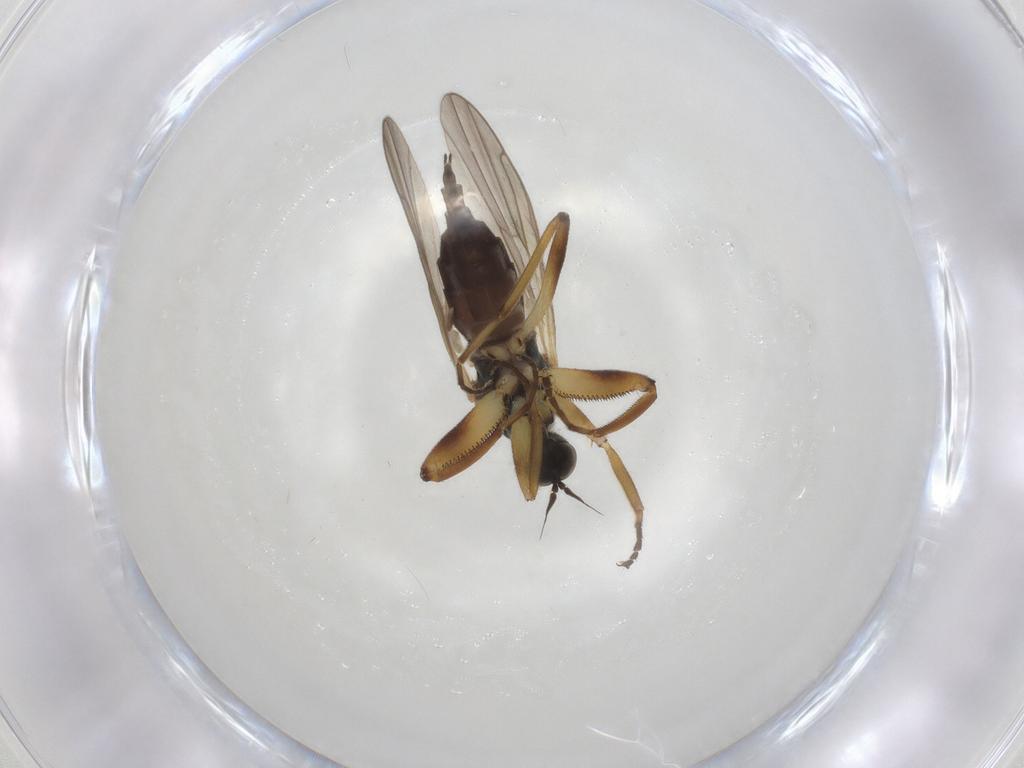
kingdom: Animalia
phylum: Arthropoda
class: Insecta
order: Diptera
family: Hybotidae
